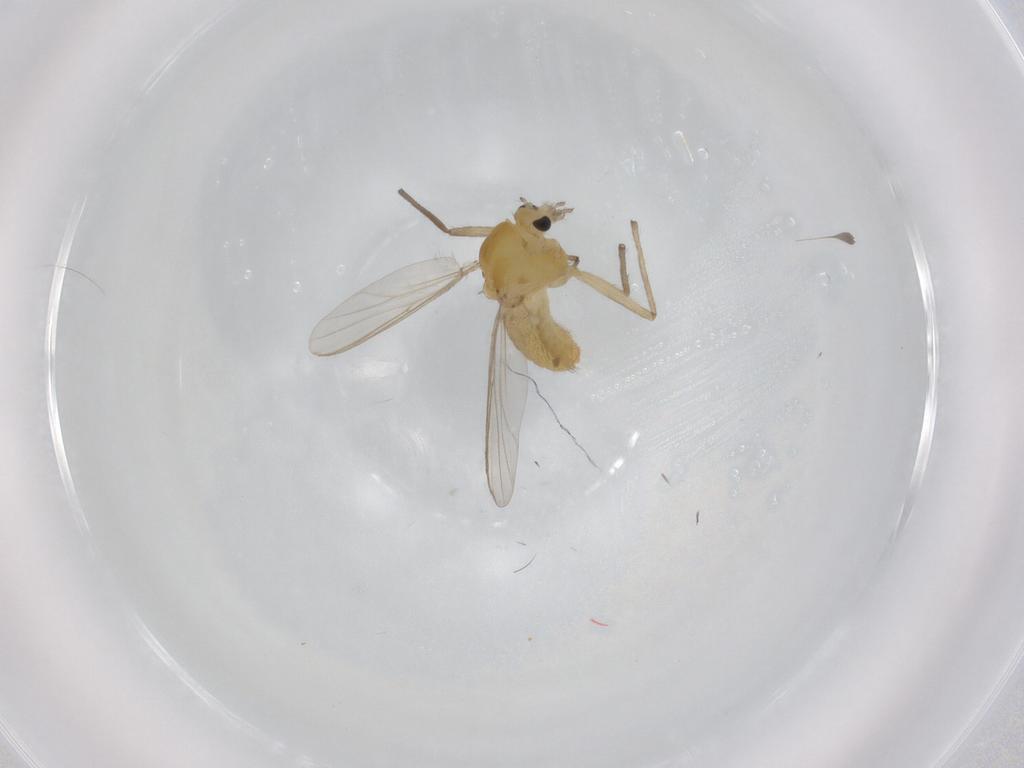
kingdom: Animalia
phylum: Arthropoda
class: Insecta
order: Diptera
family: Chironomidae
